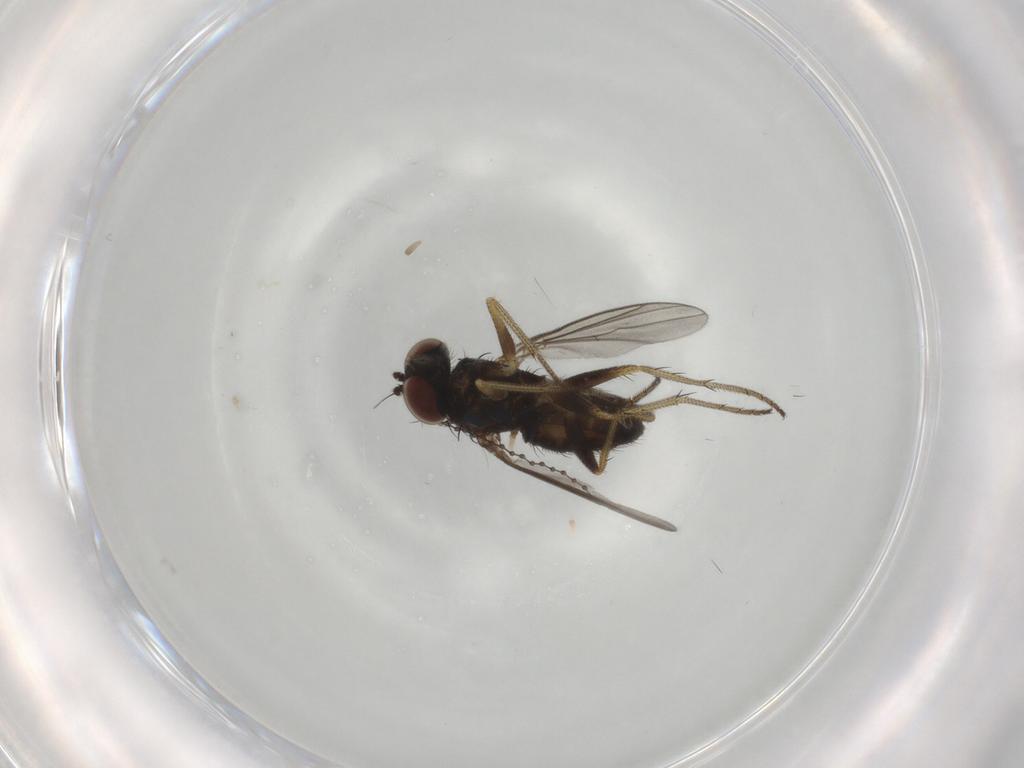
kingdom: Animalia
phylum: Arthropoda
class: Insecta
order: Diptera
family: Cecidomyiidae
